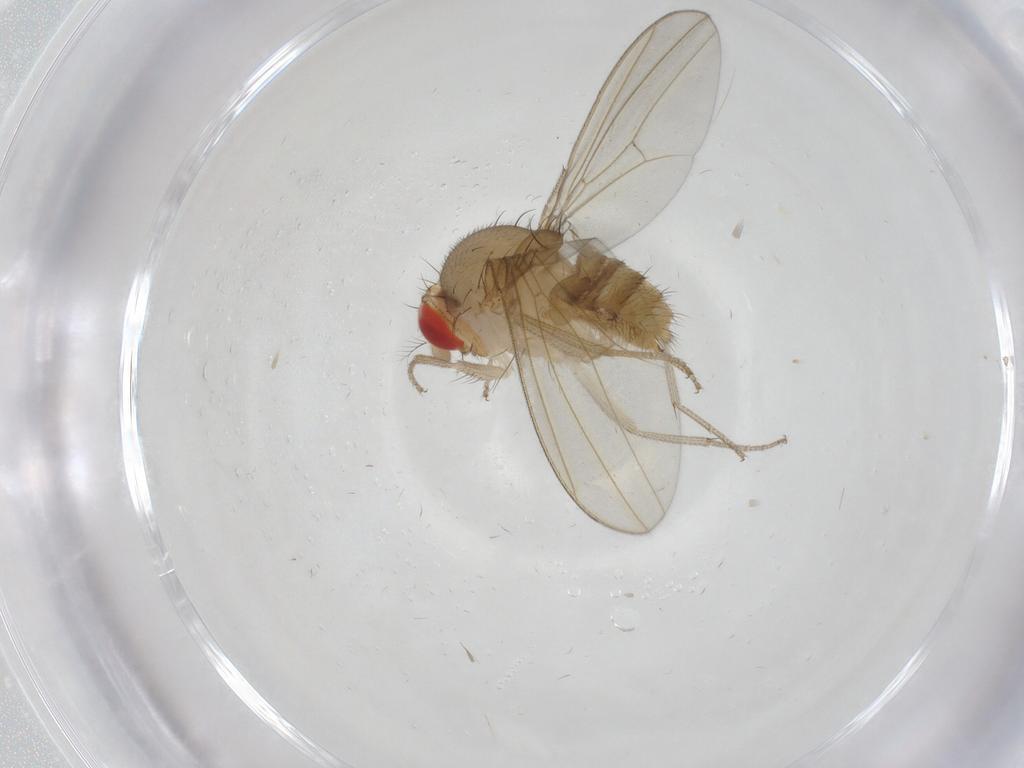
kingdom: Animalia
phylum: Arthropoda
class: Insecta
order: Diptera
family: Drosophilidae
